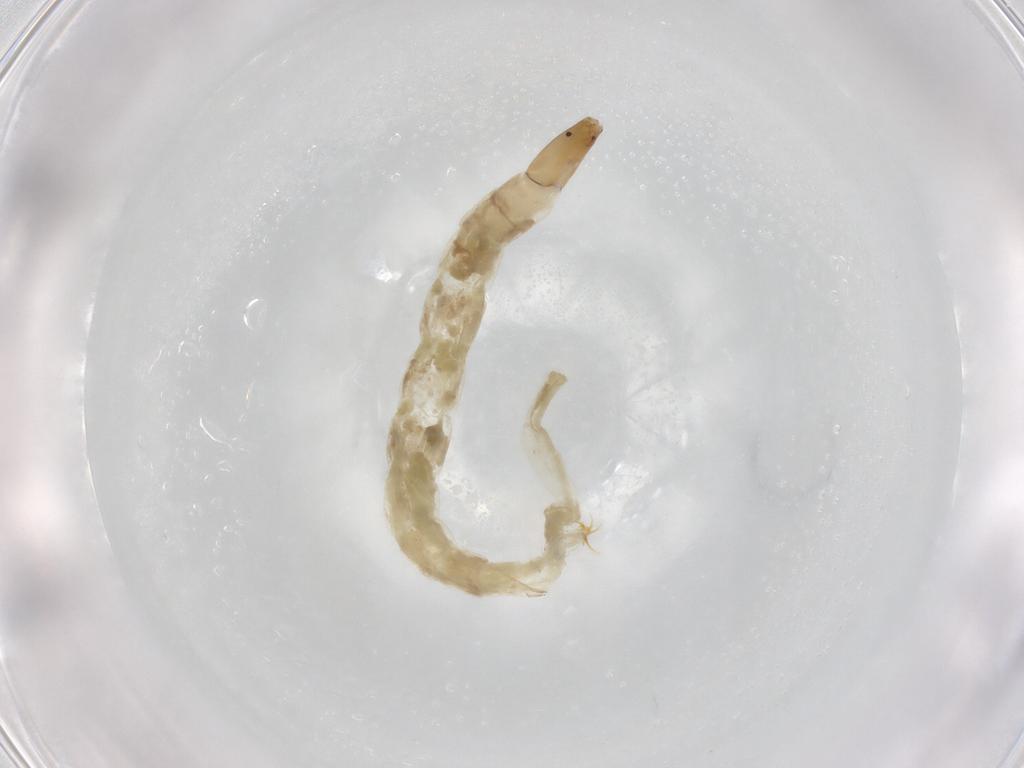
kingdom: Animalia
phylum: Arthropoda
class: Insecta
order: Diptera
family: Chironomidae
